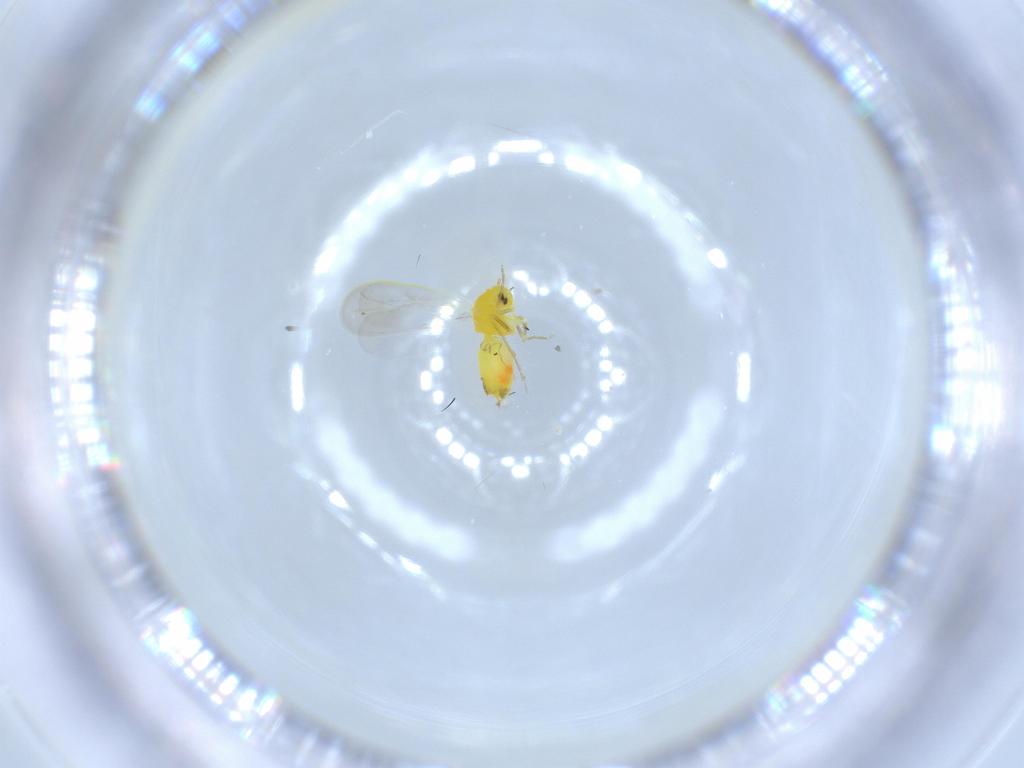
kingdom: Animalia
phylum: Arthropoda
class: Insecta
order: Hemiptera
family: Aleyrodidae
